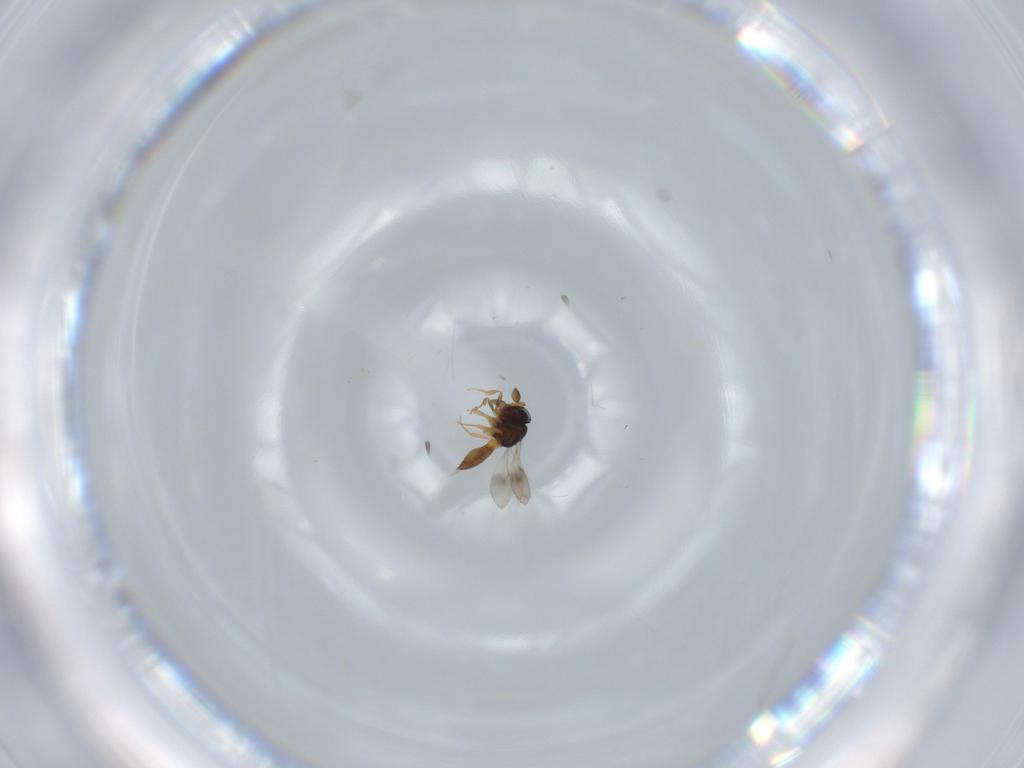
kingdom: Animalia
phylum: Arthropoda
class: Insecta
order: Hymenoptera
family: Scelionidae
